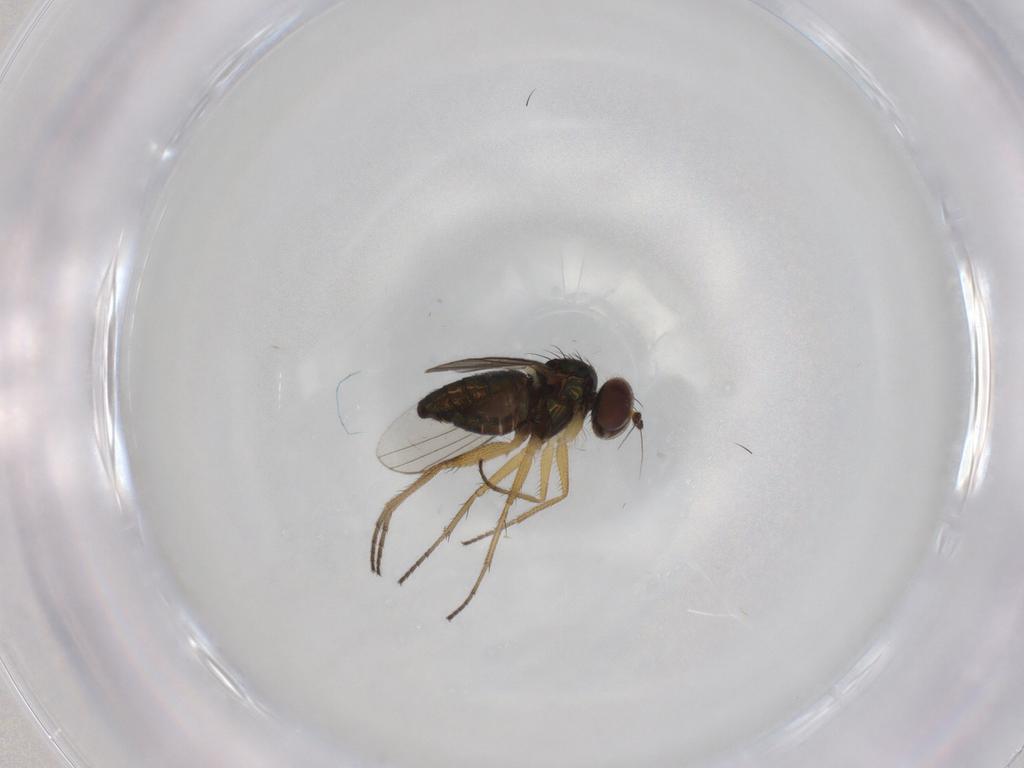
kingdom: Animalia
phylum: Arthropoda
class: Insecta
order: Diptera
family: Dolichopodidae
